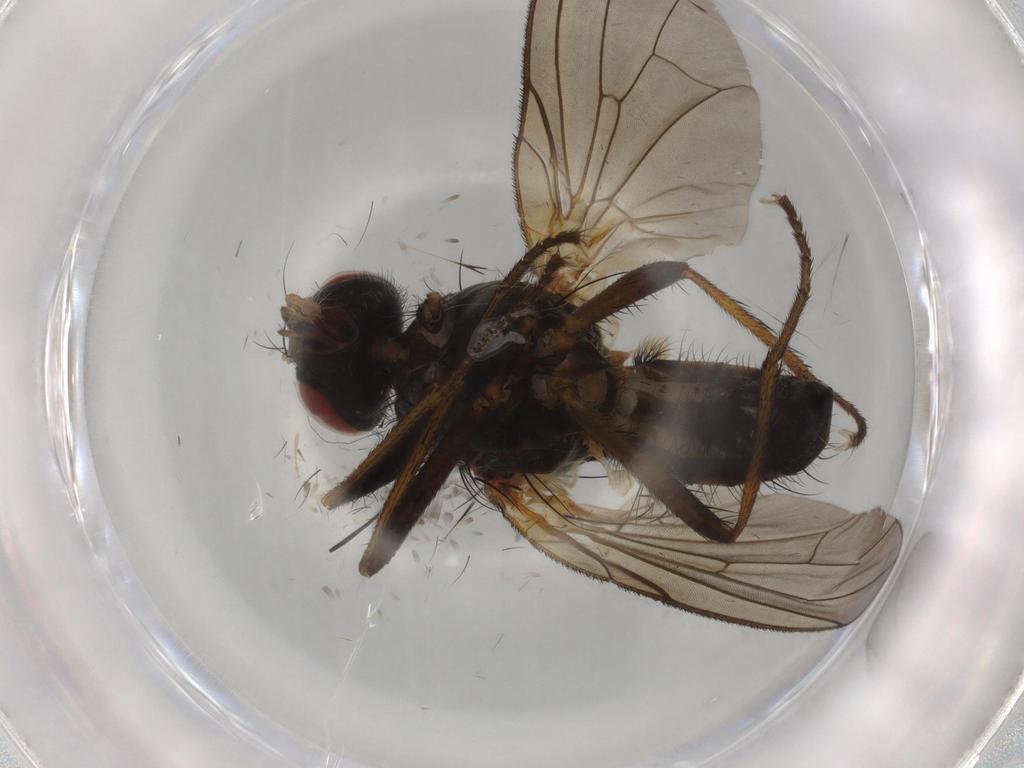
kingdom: Animalia
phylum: Arthropoda
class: Insecta
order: Diptera
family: Anthomyiidae
